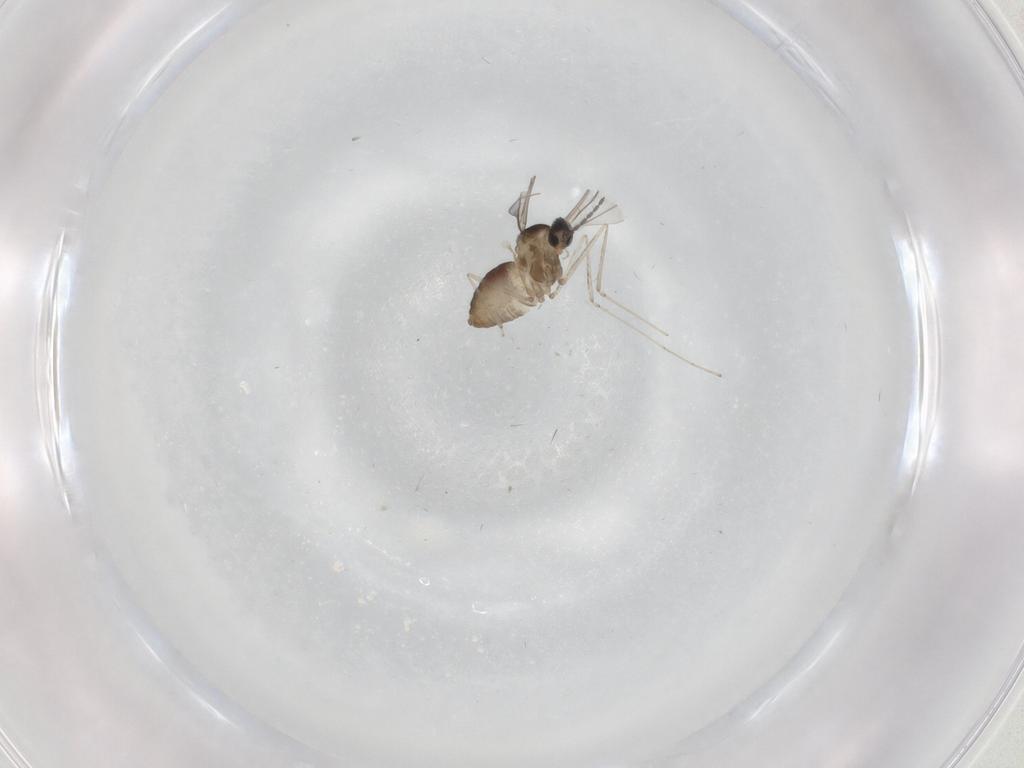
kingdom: Animalia
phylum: Arthropoda
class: Insecta
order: Diptera
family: Cecidomyiidae
